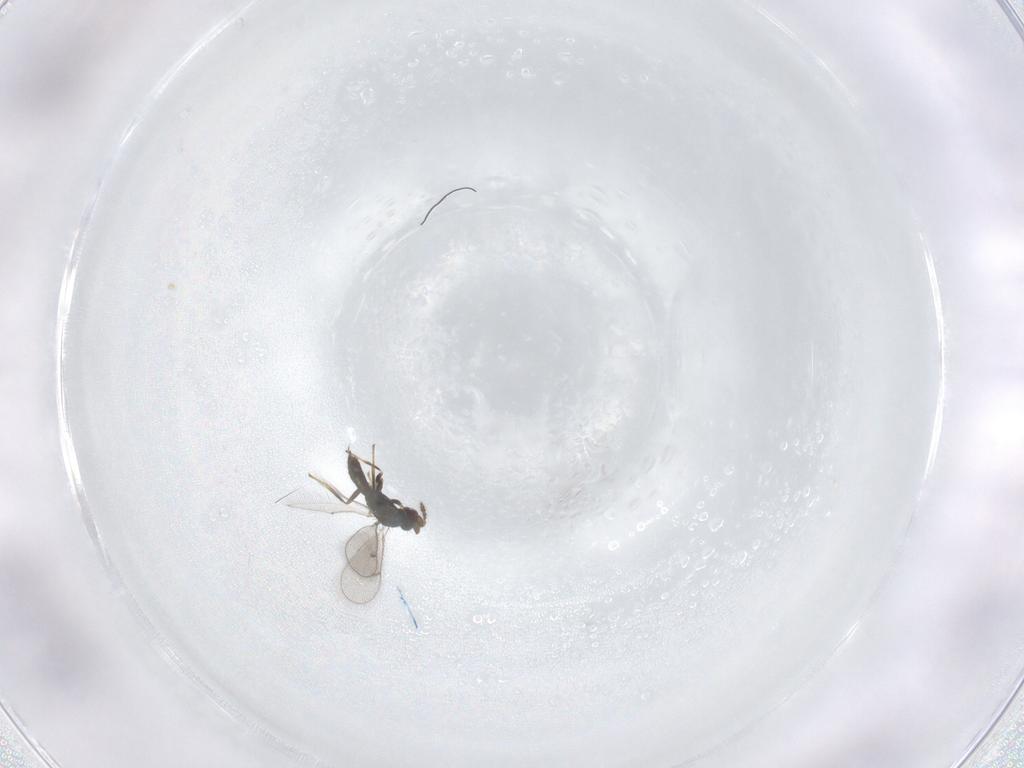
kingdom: Animalia
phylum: Arthropoda
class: Insecta
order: Hymenoptera
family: Eulophidae
